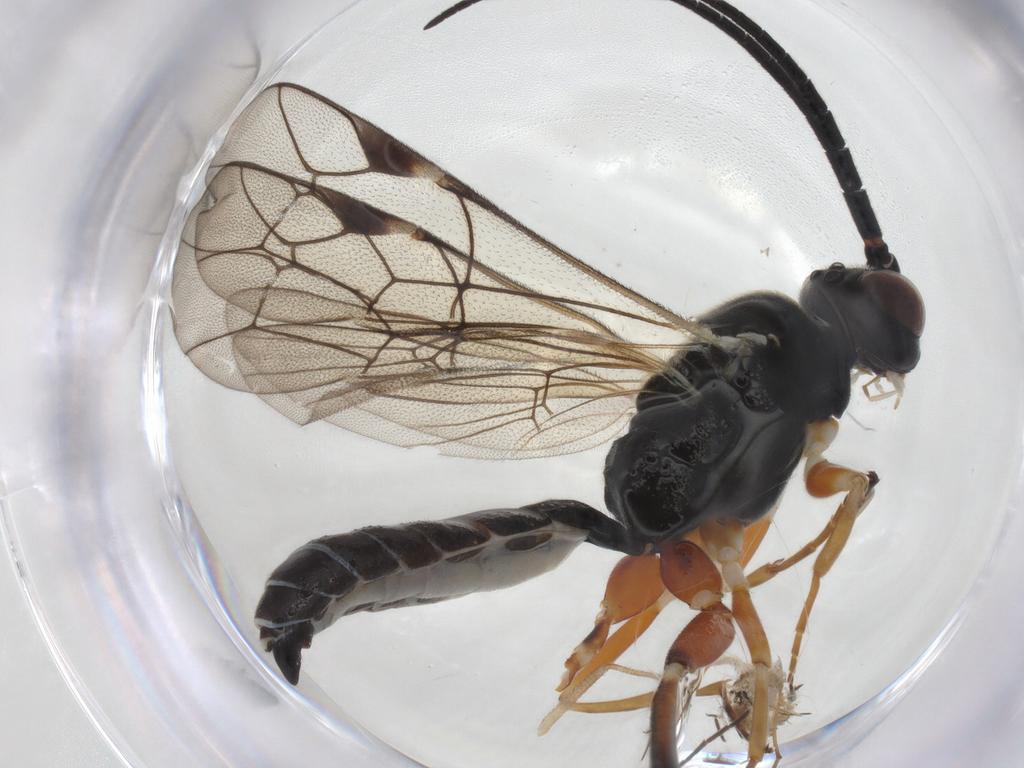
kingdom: Animalia
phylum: Arthropoda
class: Insecta
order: Hymenoptera
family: Ichneumonidae
